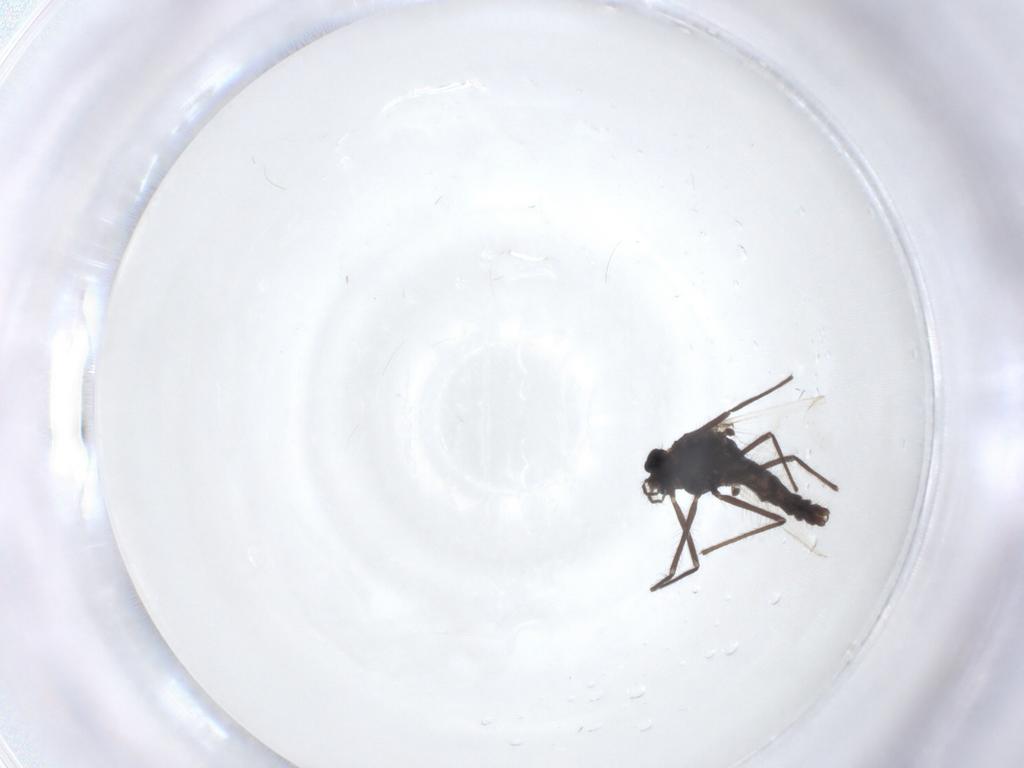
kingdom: Animalia
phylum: Arthropoda
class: Insecta
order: Diptera
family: Chironomidae
